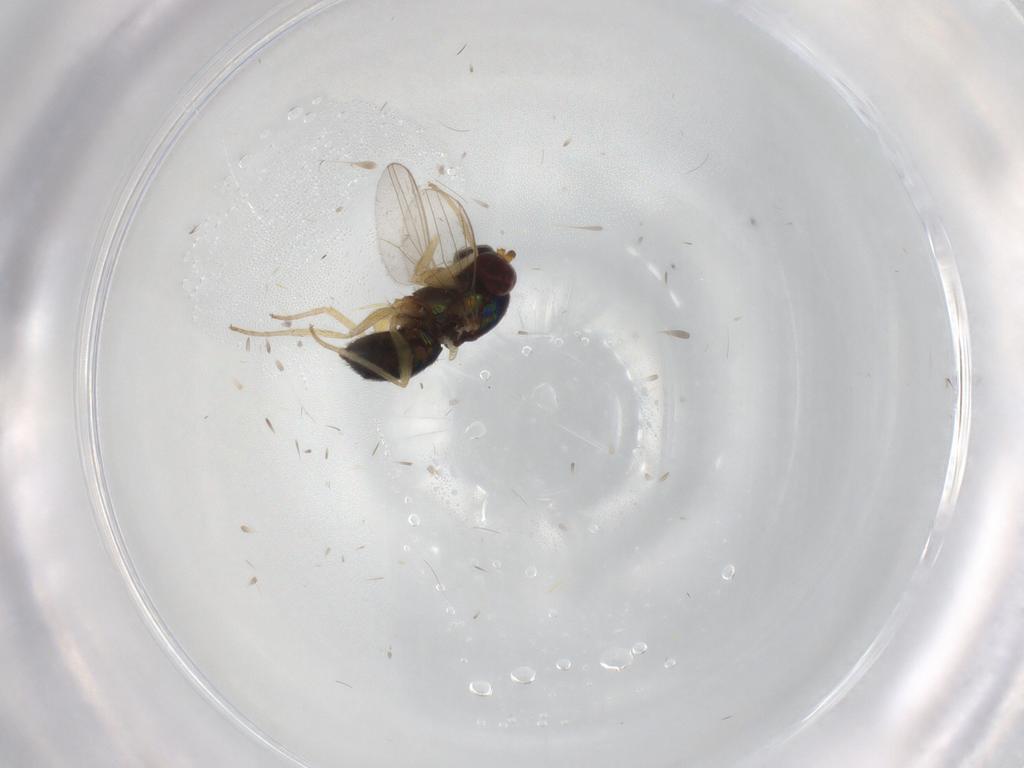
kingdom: Animalia
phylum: Arthropoda
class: Insecta
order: Diptera
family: Dolichopodidae
